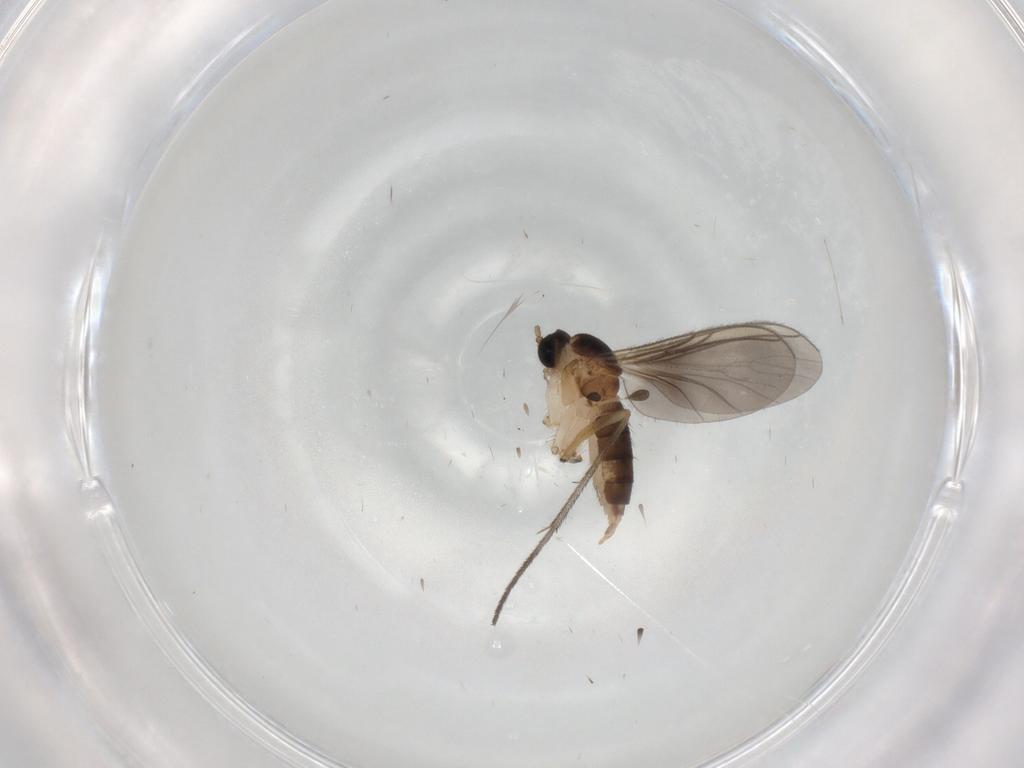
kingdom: Animalia
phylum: Arthropoda
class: Insecta
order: Diptera
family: Sciaridae
